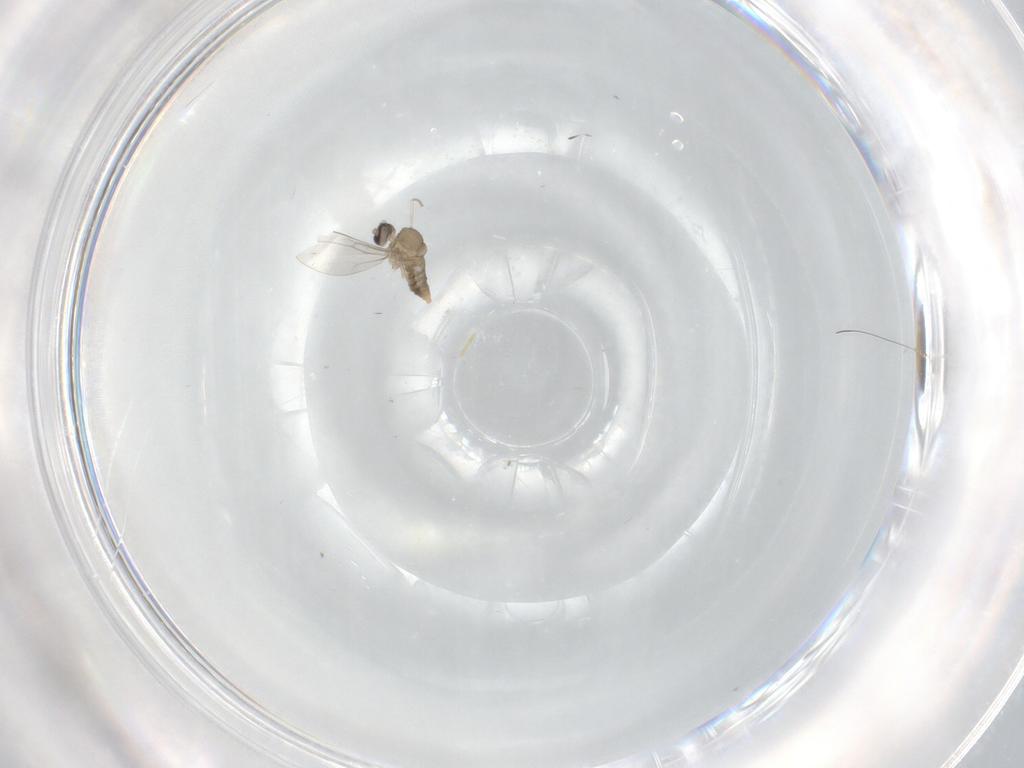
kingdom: Animalia
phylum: Arthropoda
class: Insecta
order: Diptera
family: Cecidomyiidae
